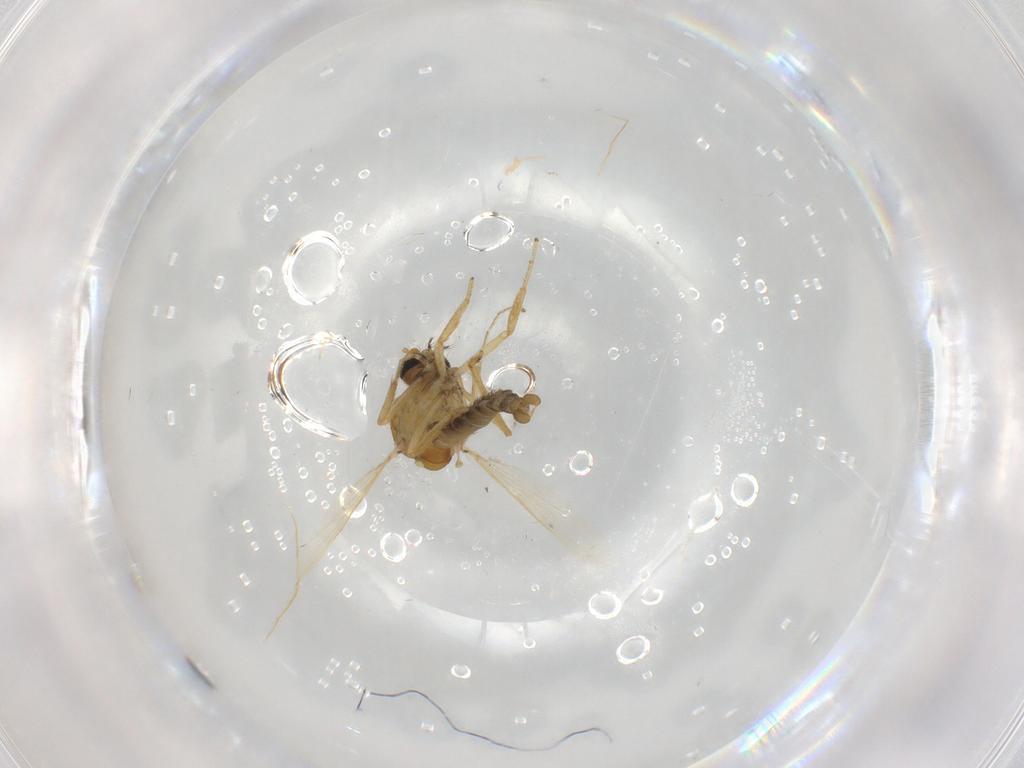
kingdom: Animalia
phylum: Arthropoda
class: Insecta
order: Diptera
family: Ceratopogonidae
